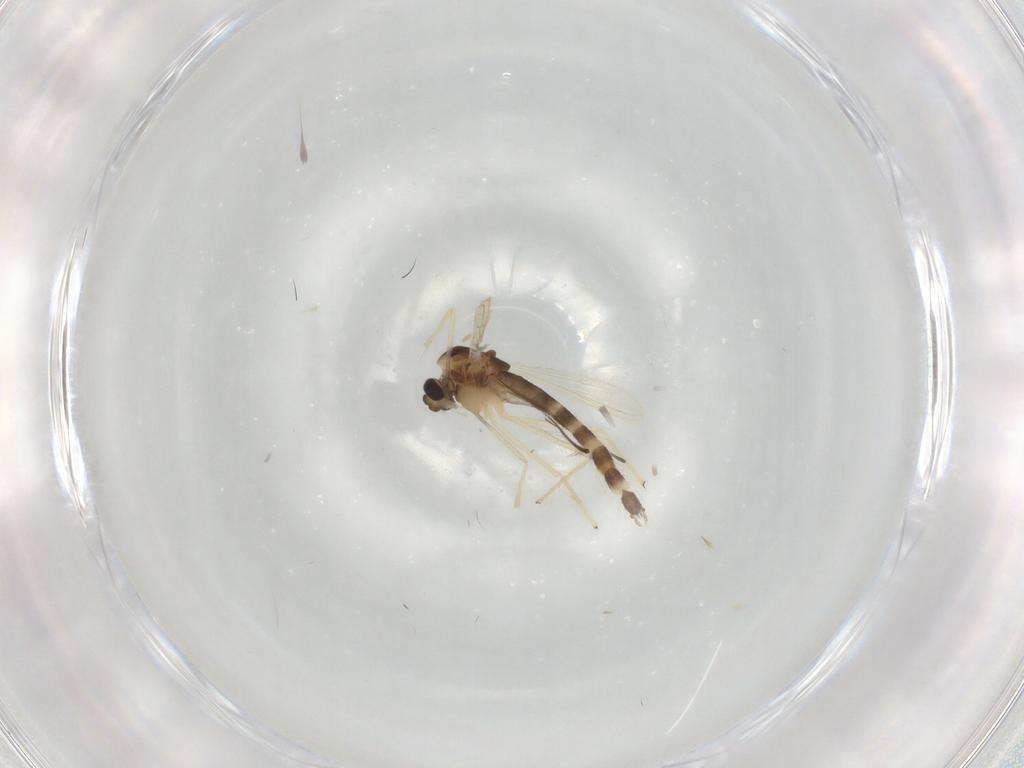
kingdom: Animalia
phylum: Arthropoda
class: Insecta
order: Diptera
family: Chironomidae
